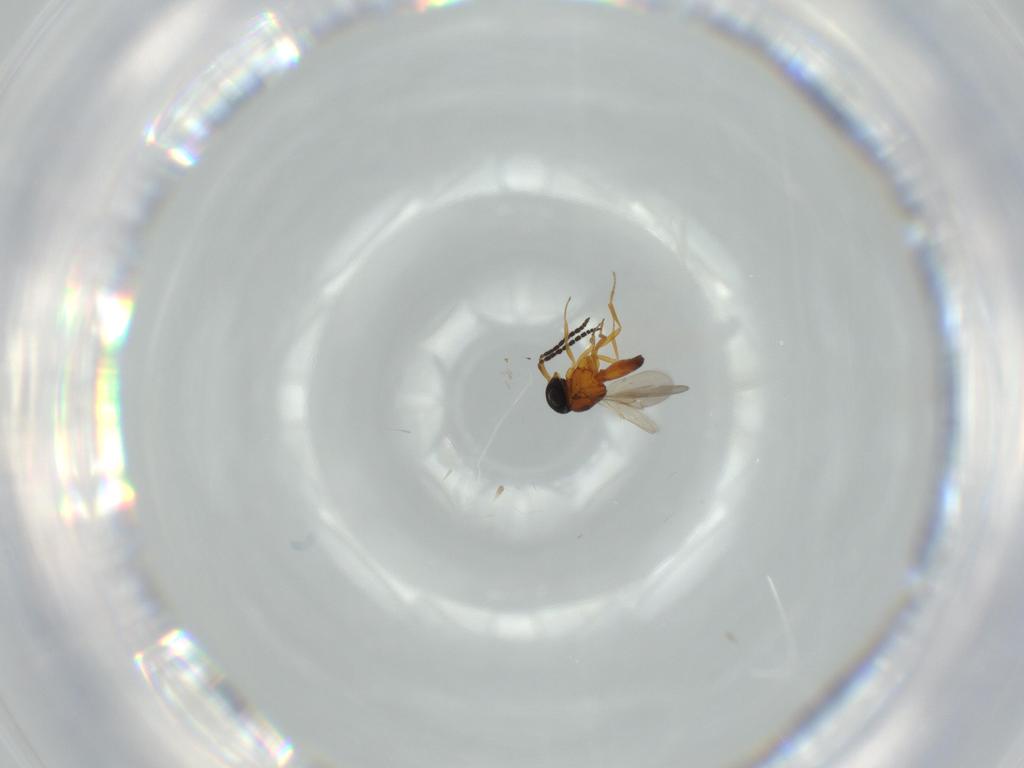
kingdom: Animalia
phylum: Arthropoda
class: Insecta
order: Hymenoptera
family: Scelionidae
